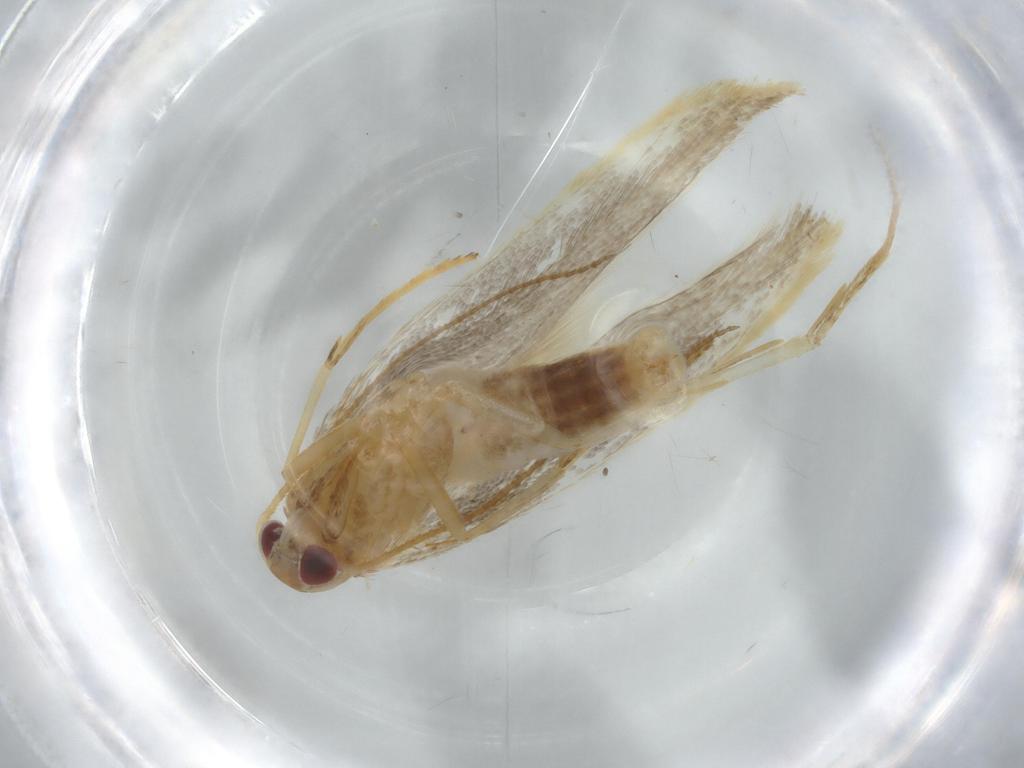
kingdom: Animalia
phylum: Arthropoda
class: Insecta
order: Lepidoptera
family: Cosmopterigidae
